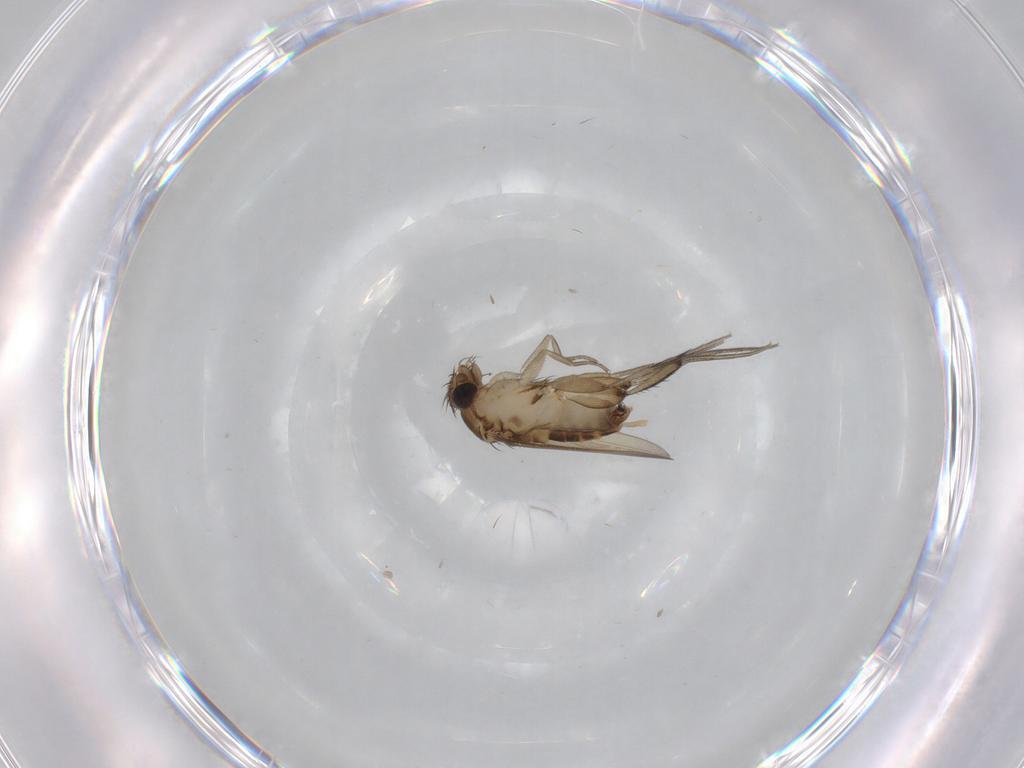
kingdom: Animalia
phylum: Arthropoda
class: Insecta
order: Diptera
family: Phoridae
